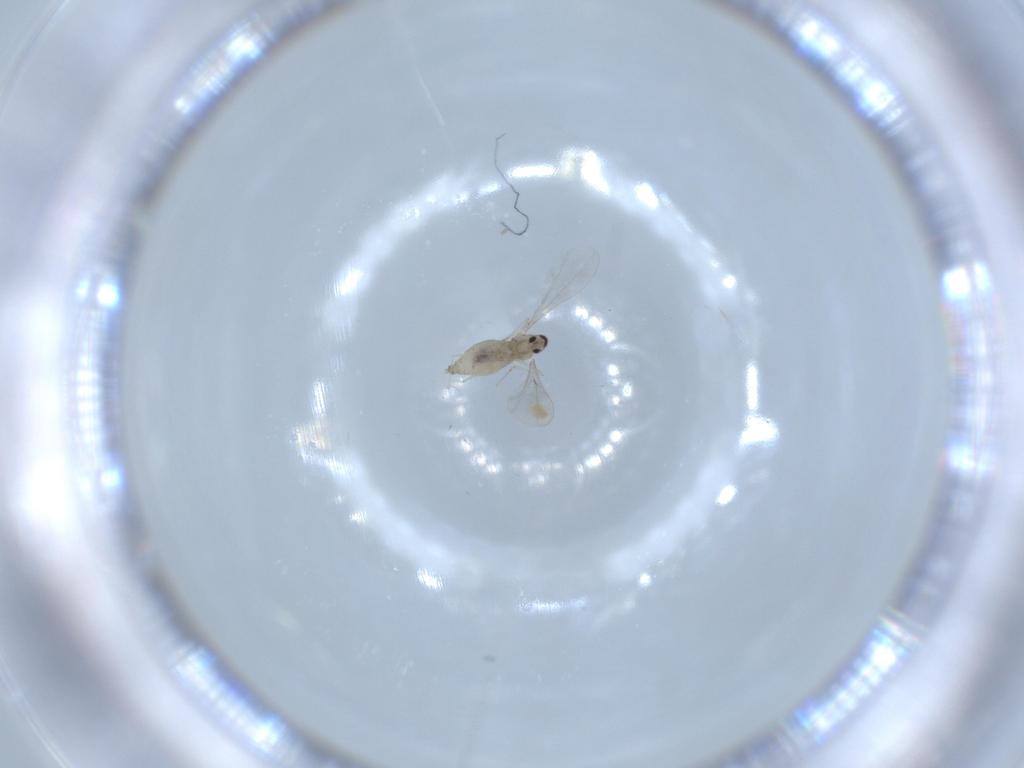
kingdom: Animalia
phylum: Arthropoda
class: Insecta
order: Diptera
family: Cecidomyiidae
